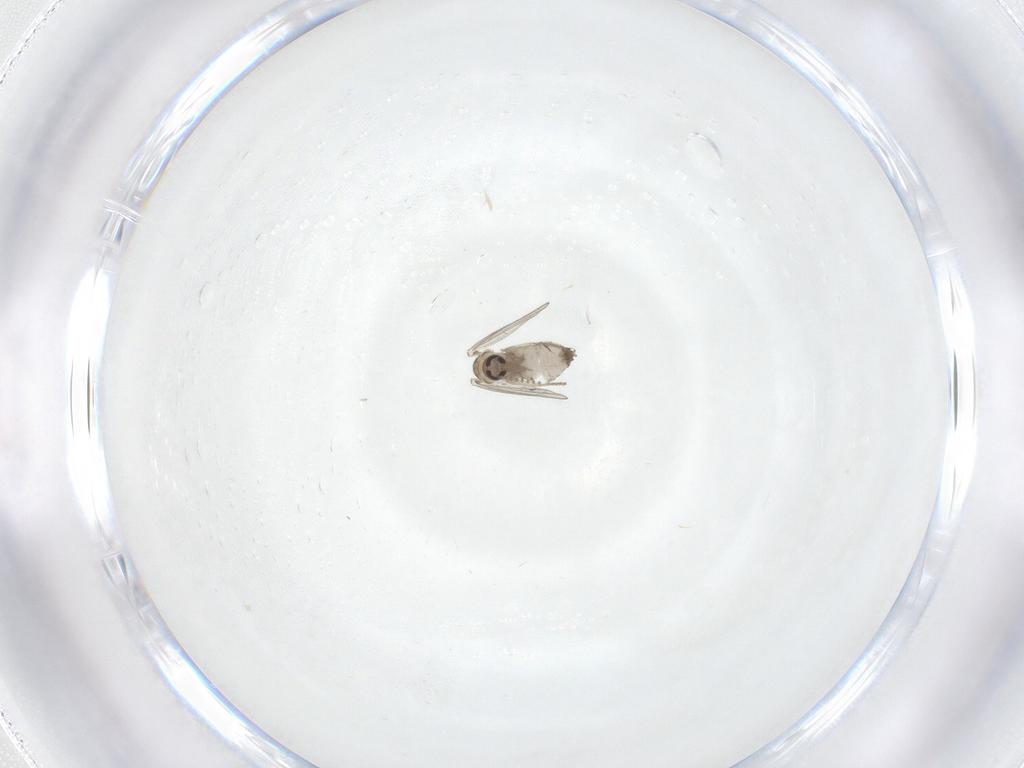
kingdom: Animalia
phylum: Arthropoda
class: Insecta
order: Diptera
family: Psychodidae
